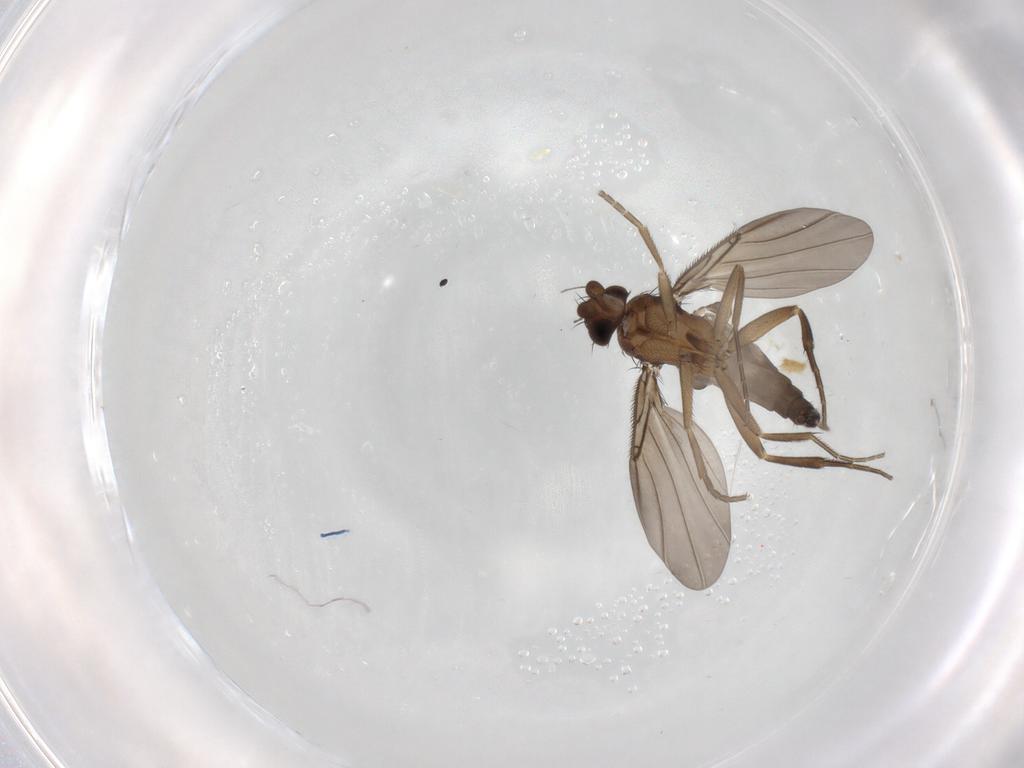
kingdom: Animalia
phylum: Arthropoda
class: Insecta
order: Diptera
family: Phoridae
